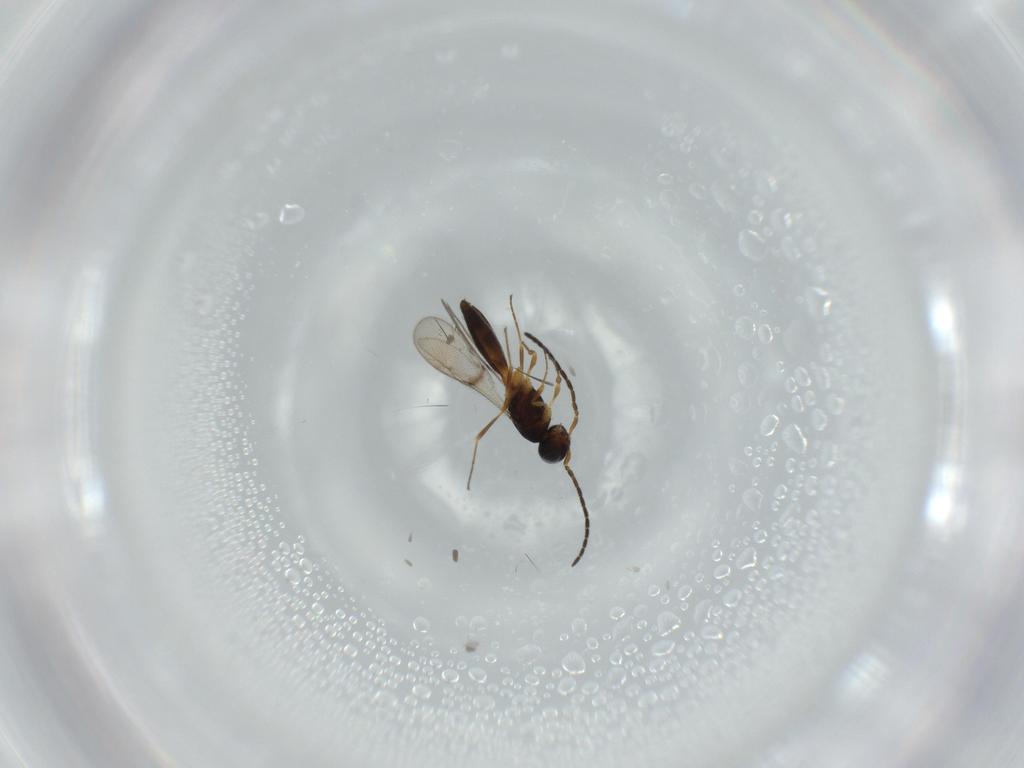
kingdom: Animalia
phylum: Arthropoda
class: Insecta
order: Hymenoptera
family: Scelionidae
